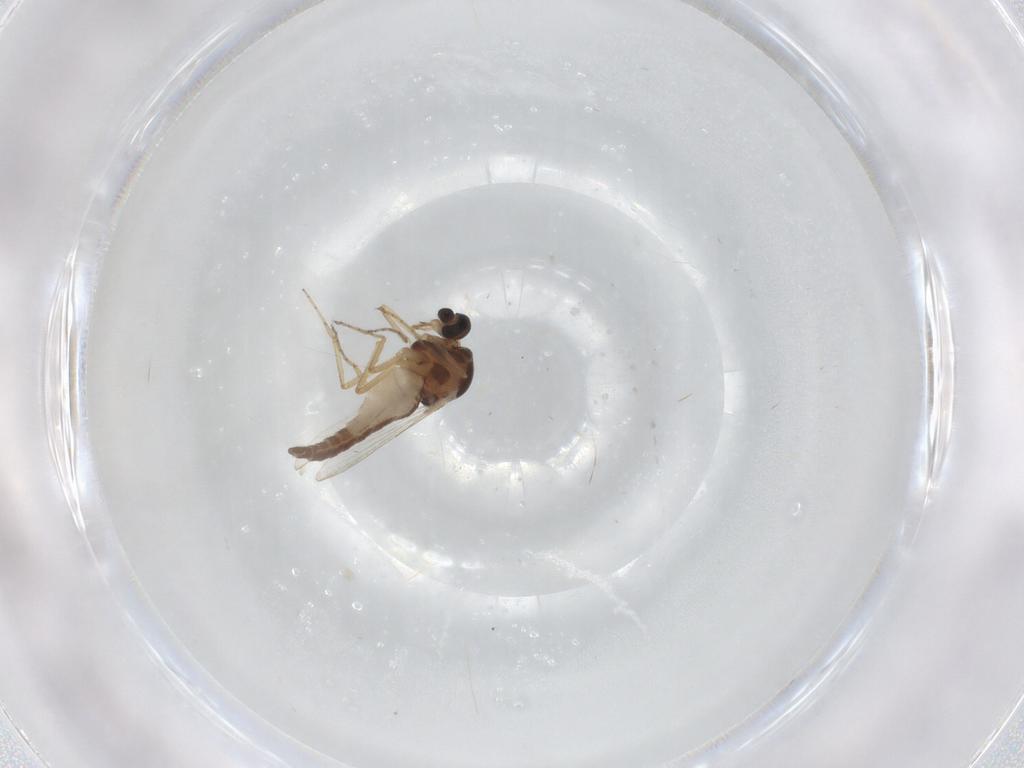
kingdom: Animalia
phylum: Arthropoda
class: Insecta
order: Diptera
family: Ceratopogonidae
